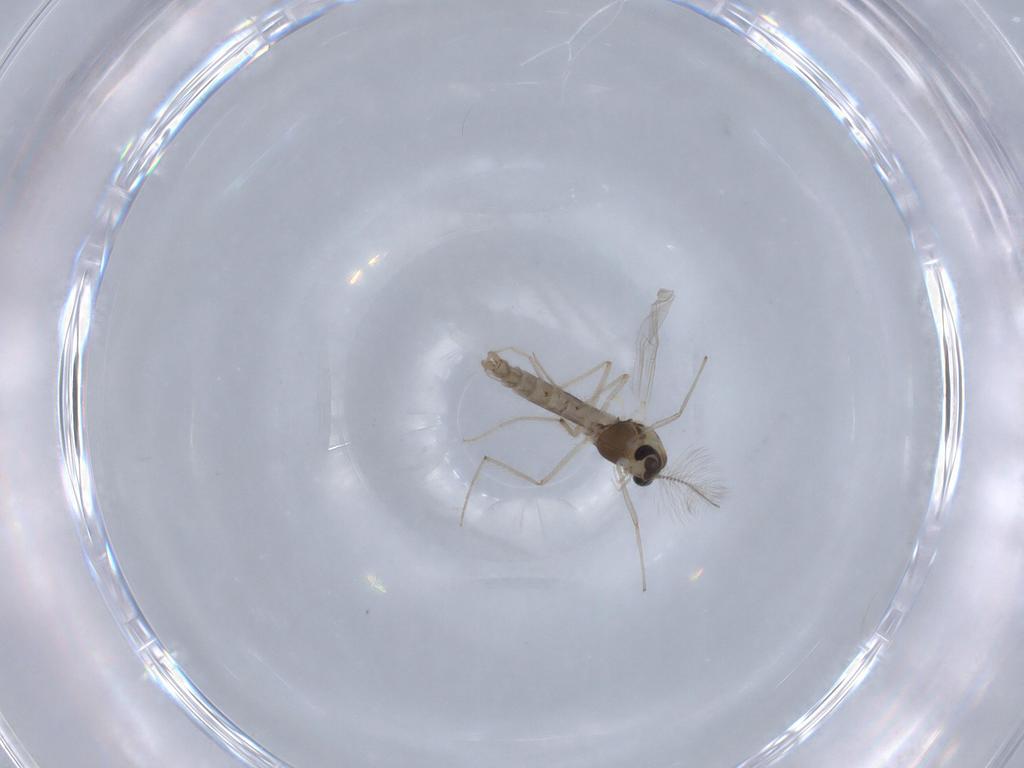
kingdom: Animalia
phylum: Arthropoda
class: Insecta
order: Diptera
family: Chironomidae
